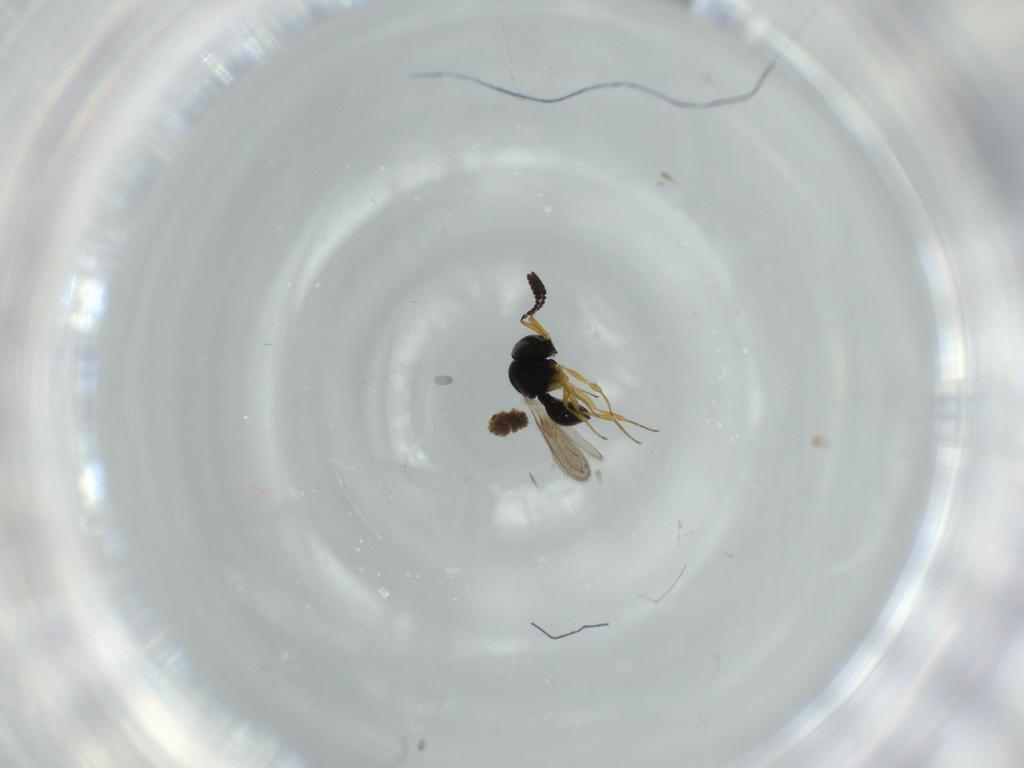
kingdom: Animalia
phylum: Arthropoda
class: Insecta
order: Hymenoptera
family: Scelionidae
